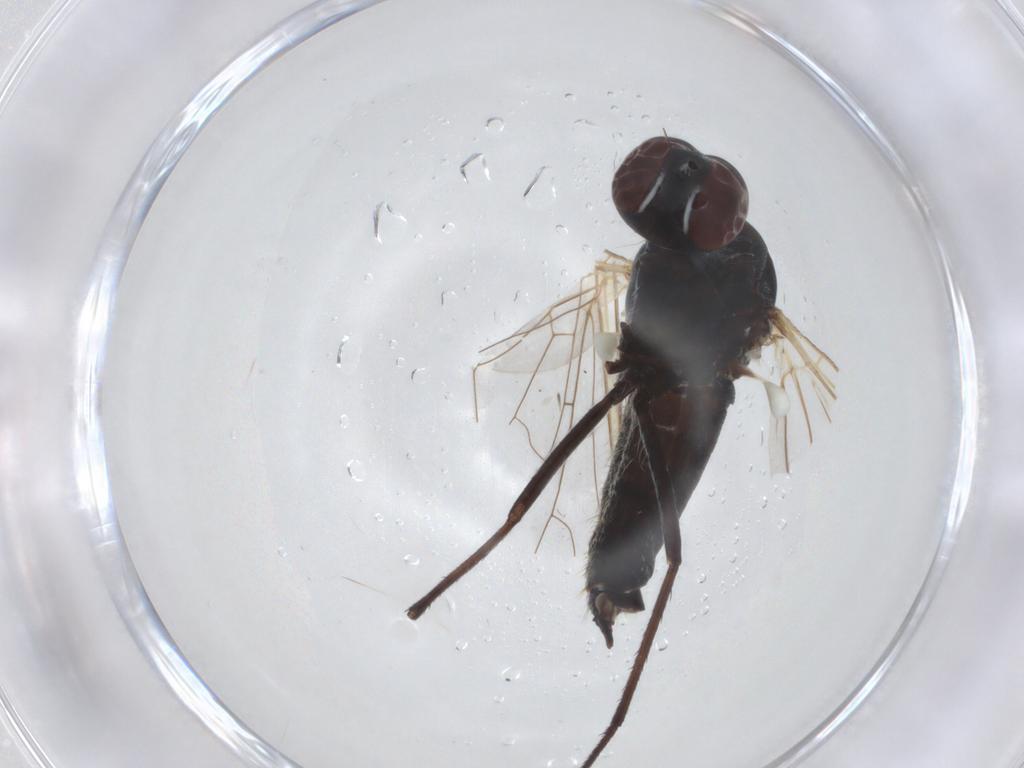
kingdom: Animalia
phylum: Arthropoda
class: Insecta
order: Diptera
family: Bombyliidae
